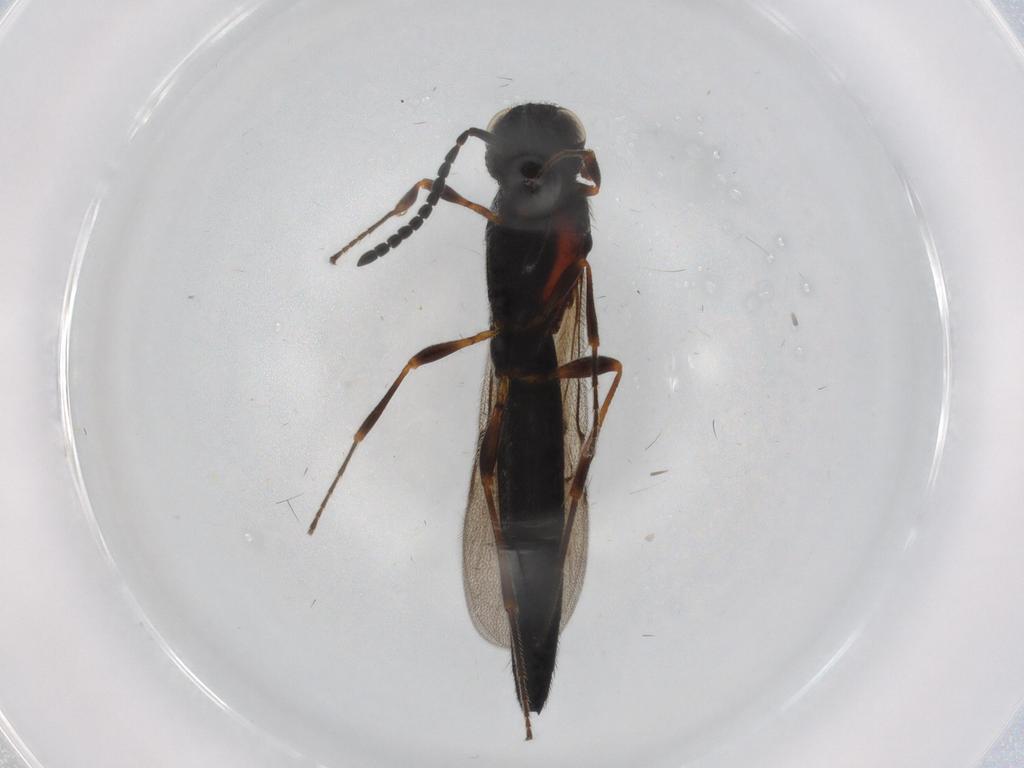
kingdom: Animalia
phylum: Arthropoda
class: Insecta
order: Hymenoptera
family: Scelionidae
